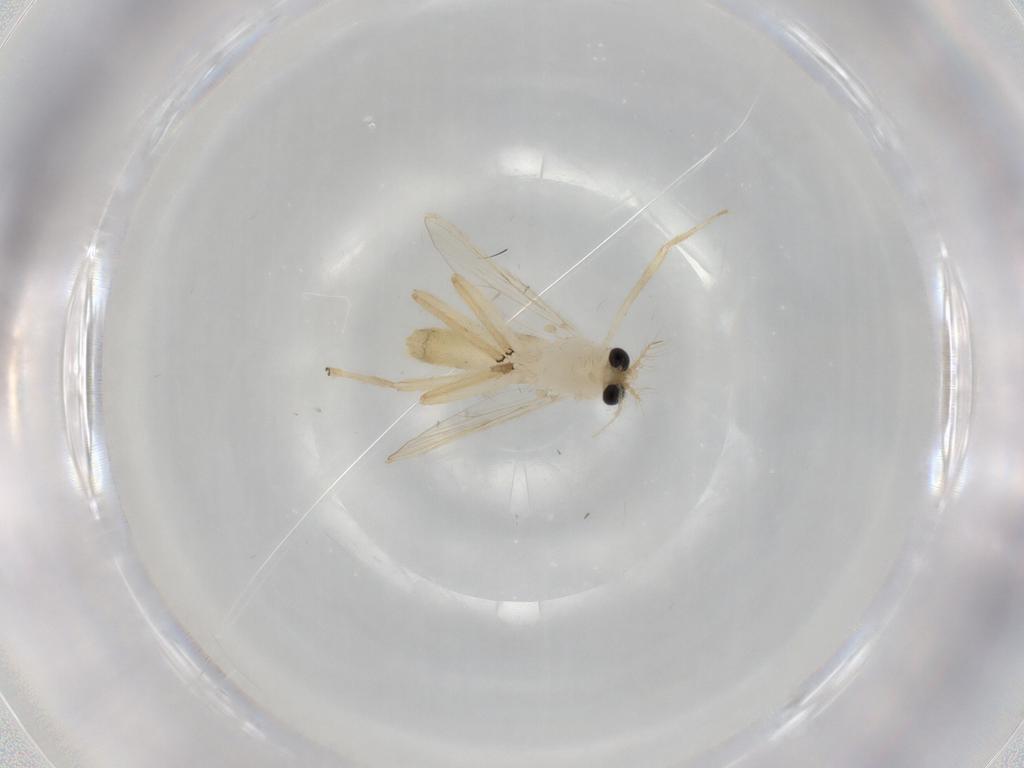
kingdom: Animalia
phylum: Arthropoda
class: Insecta
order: Diptera
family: Chironomidae
